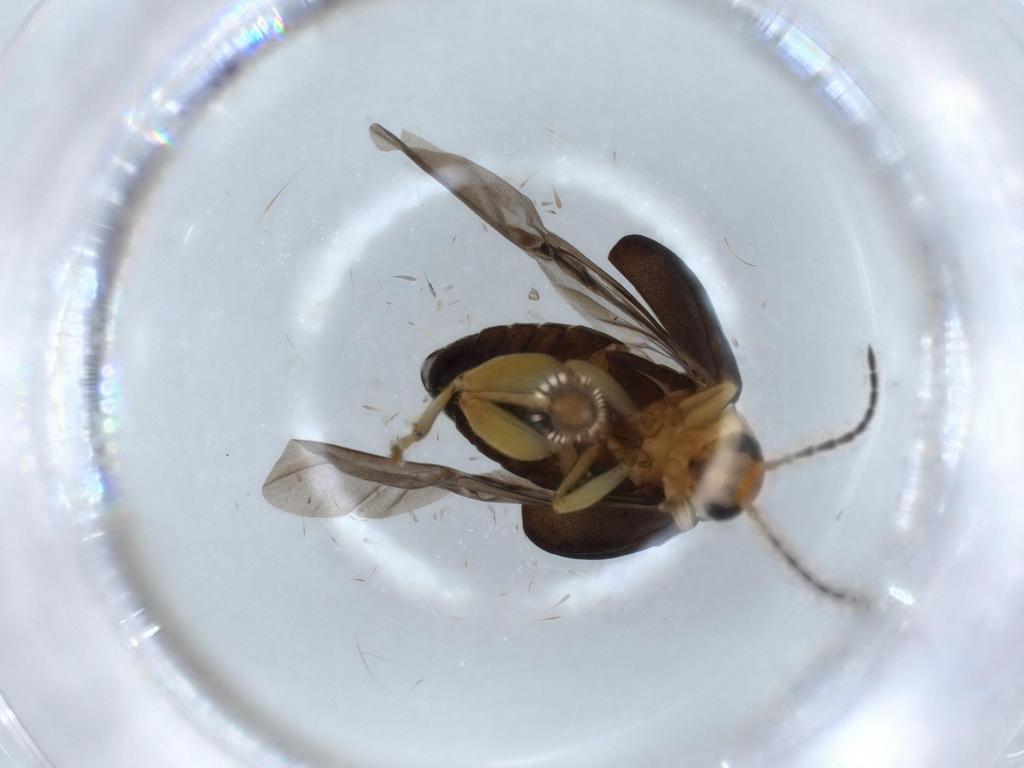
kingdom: Animalia
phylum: Arthropoda
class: Insecta
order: Coleoptera
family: Chrysomelidae
